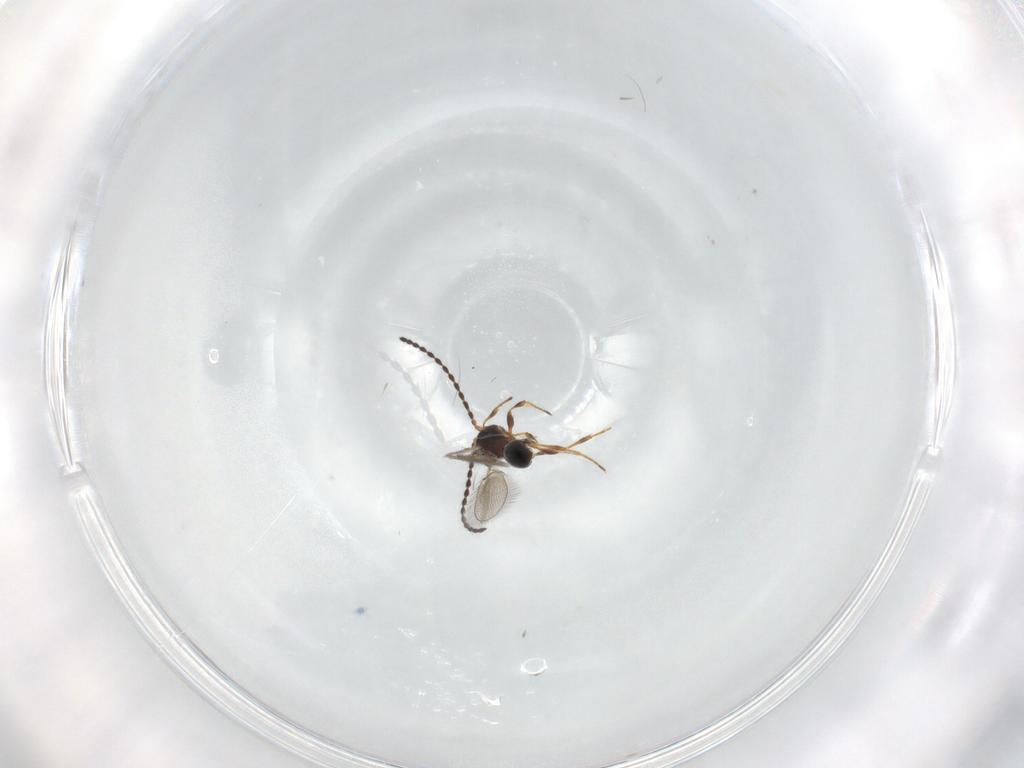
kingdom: Animalia
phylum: Arthropoda
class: Insecta
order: Hymenoptera
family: Diapriidae
